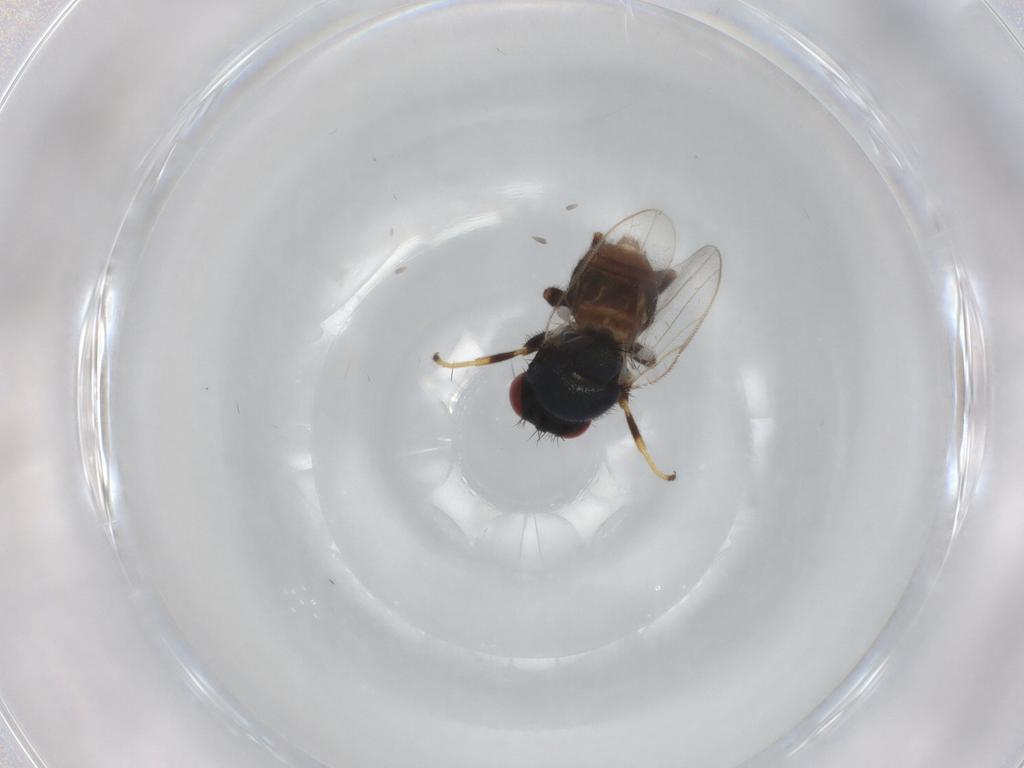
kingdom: Animalia
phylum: Arthropoda
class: Insecta
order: Diptera
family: Chloropidae
